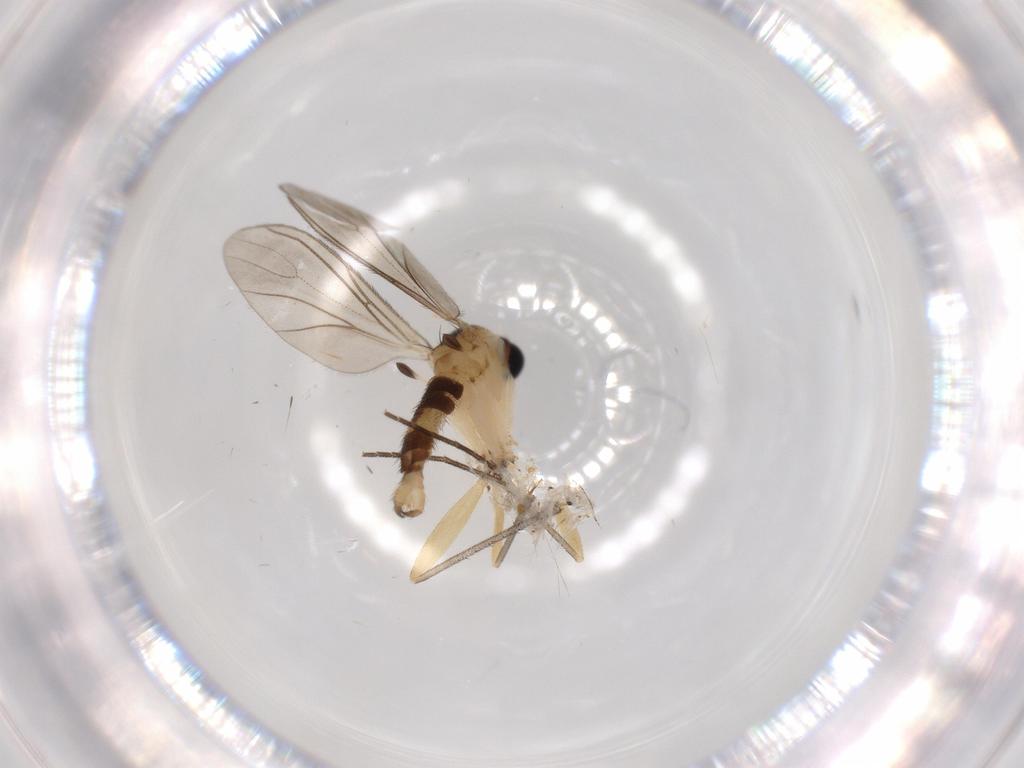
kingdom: Animalia
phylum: Arthropoda
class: Insecta
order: Diptera
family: Sciaridae
